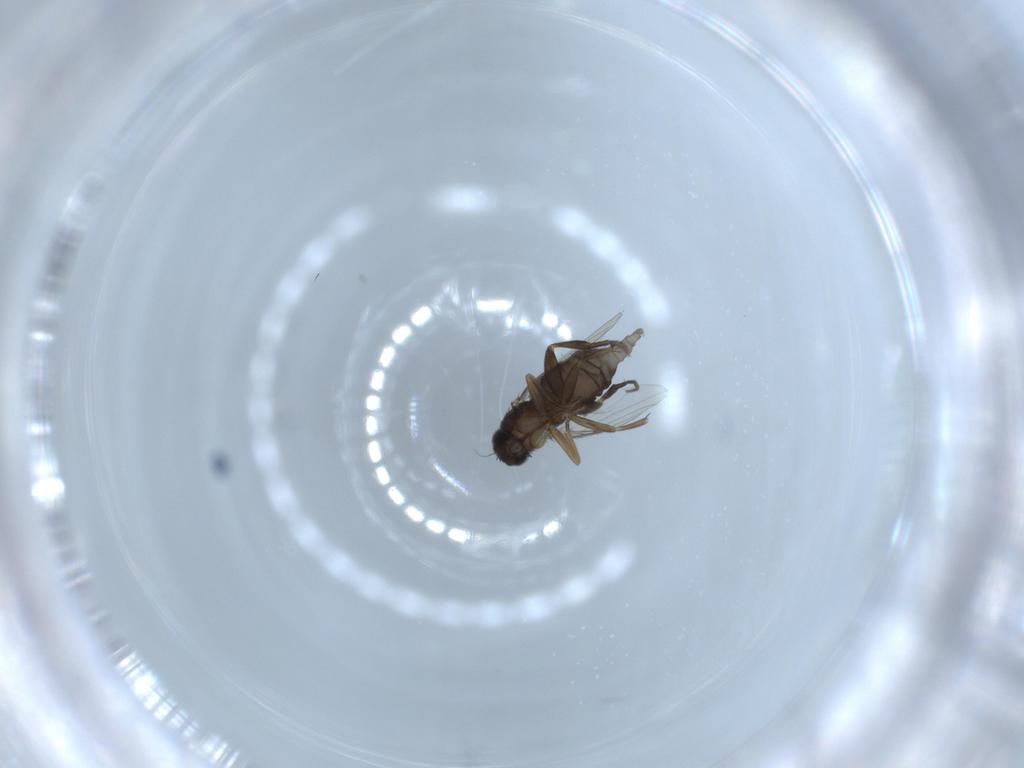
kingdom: Animalia
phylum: Arthropoda
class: Insecta
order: Diptera
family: Phoridae
